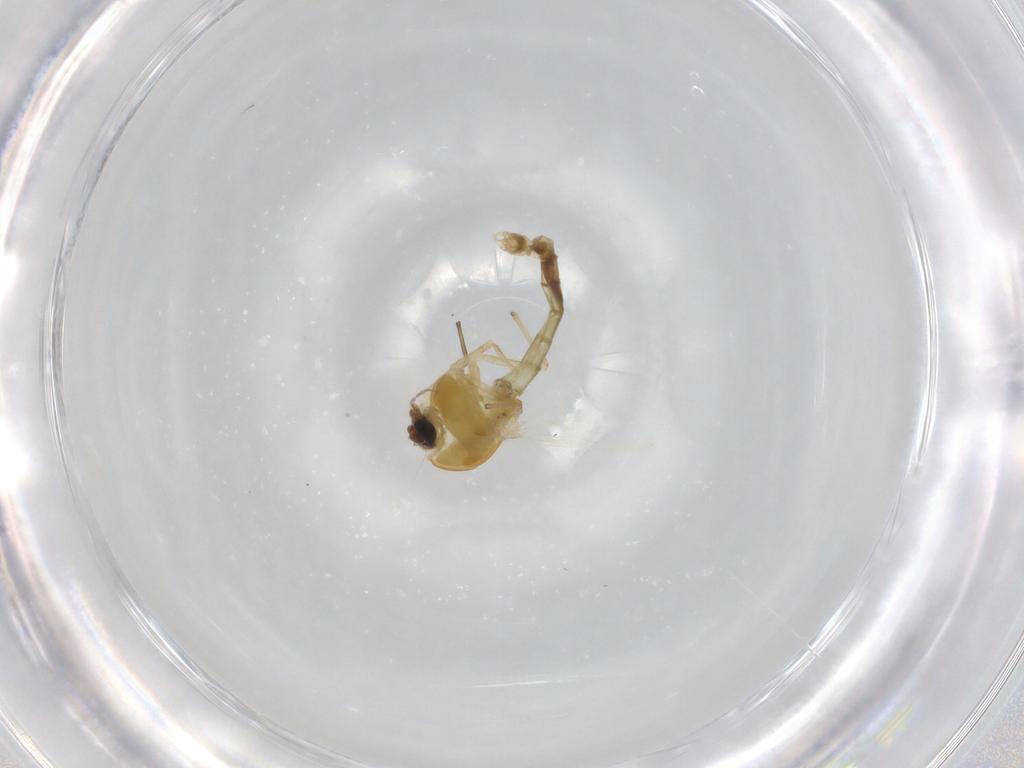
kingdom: Animalia
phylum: Arthropoda
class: Insecta
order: Diptera
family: Chironomidae
